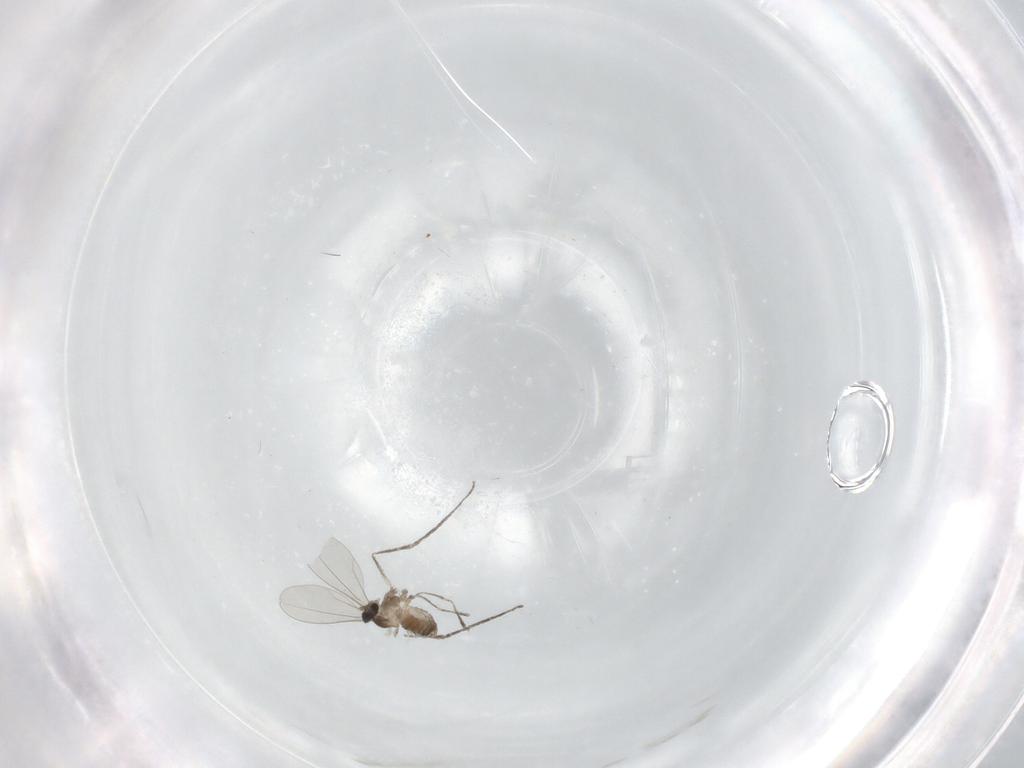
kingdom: Animalia
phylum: Arthropoda
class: Insecta
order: Diptera
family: Cecidomyiidae
